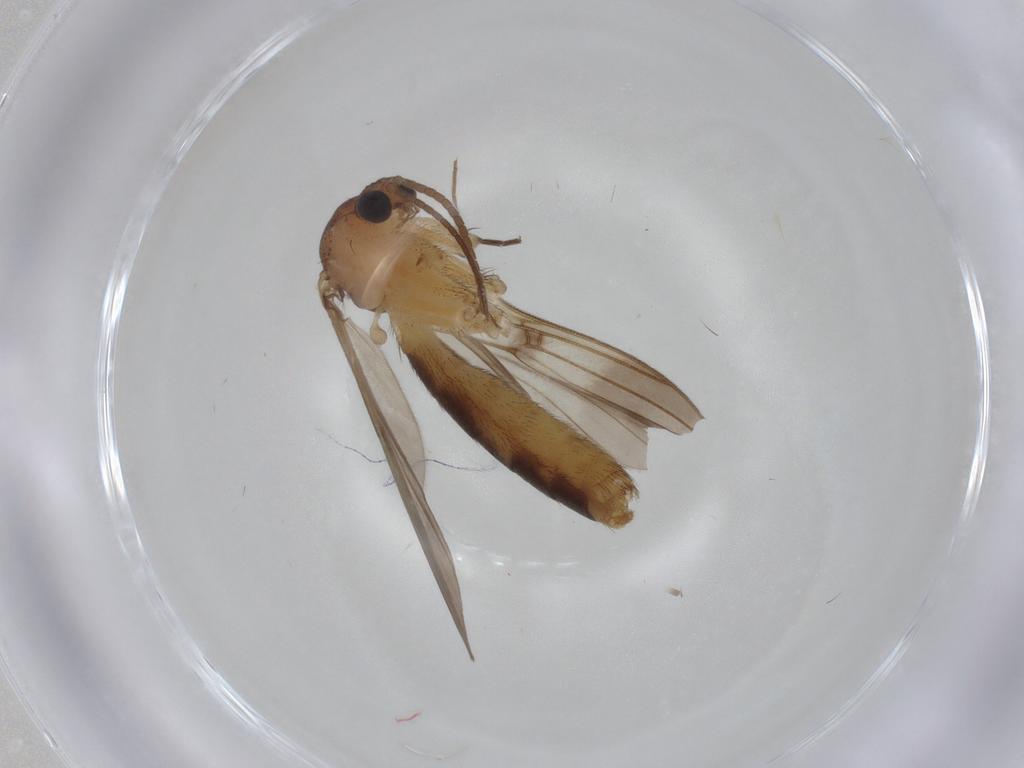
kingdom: Animalia
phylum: Arthropoda
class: Insecta
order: Diptera
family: Mycetophilidae
